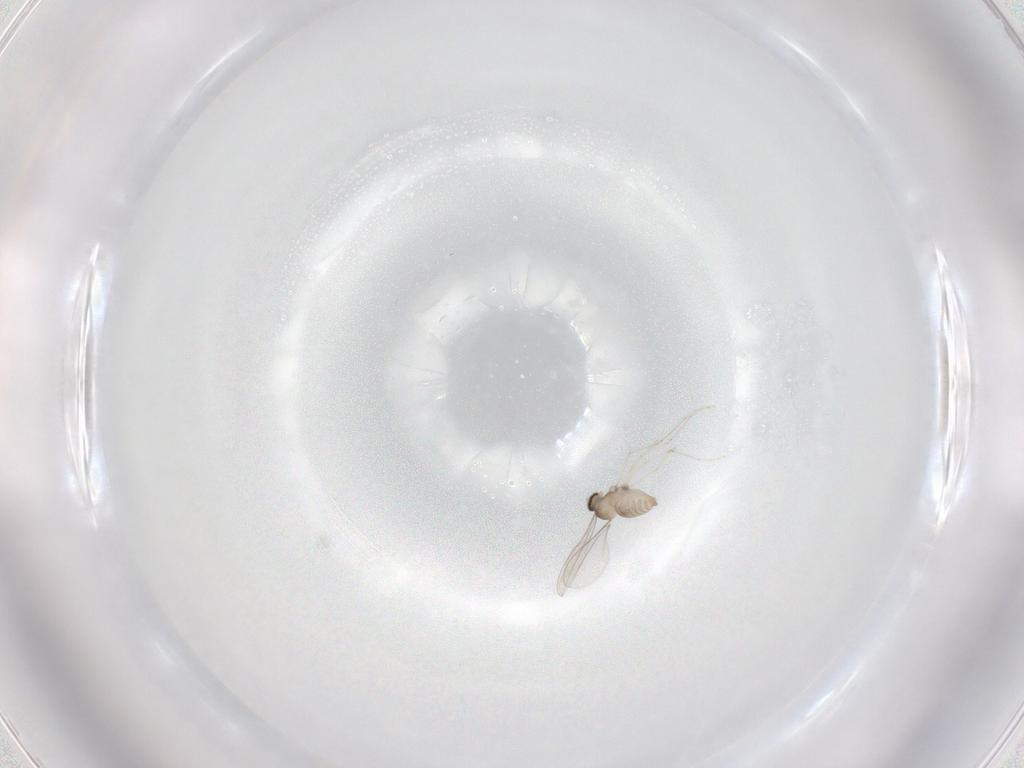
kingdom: Animalia
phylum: Arthropoda
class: Insecta
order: Diptera
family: Cecidomyiidae
